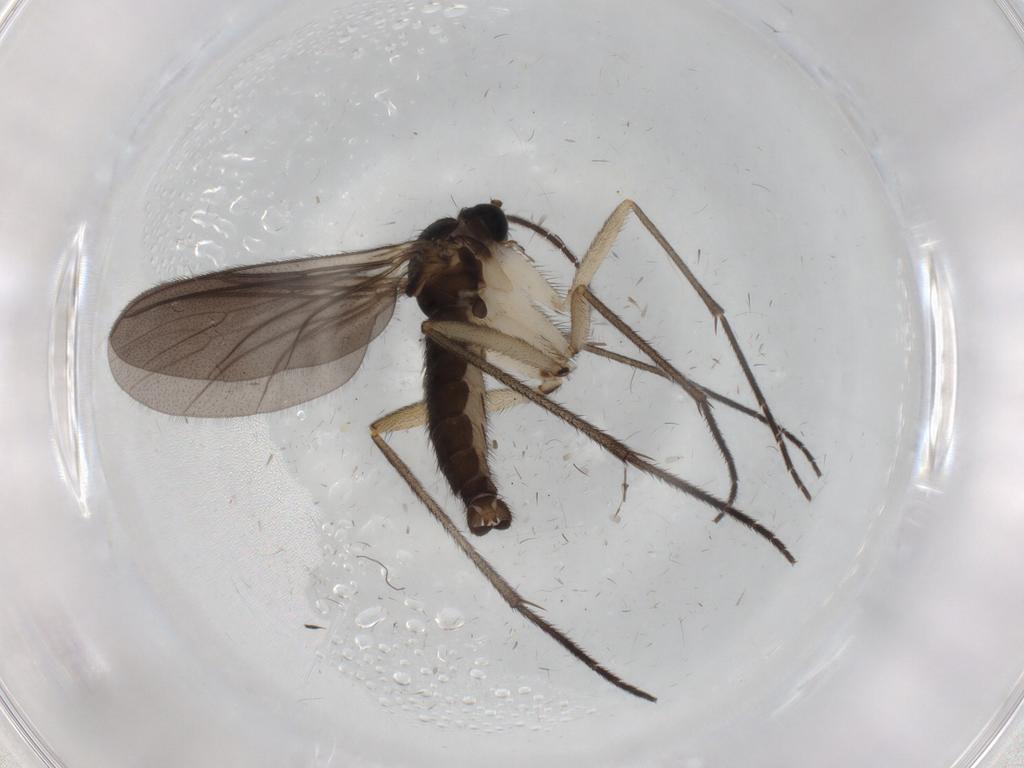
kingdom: Animalia
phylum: Arthropoda
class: Insecta
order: Diptera
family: Sciaridae
